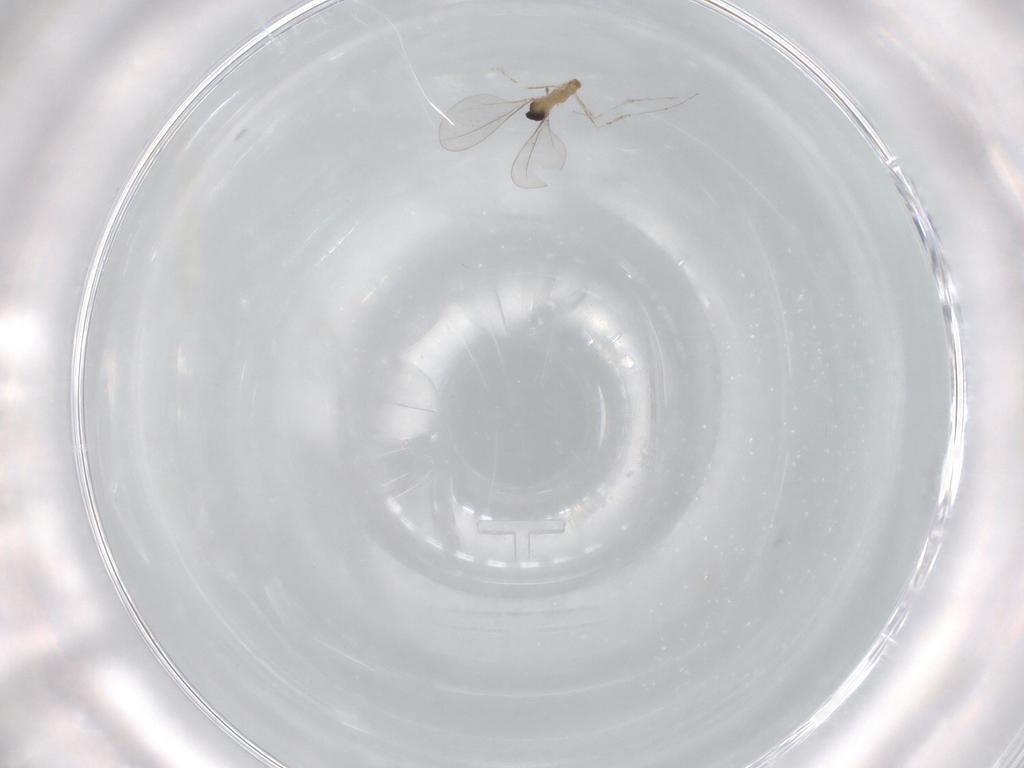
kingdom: Animalia
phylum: Arthropoda
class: Insecta
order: Diptera
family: Cecidomyiidae
